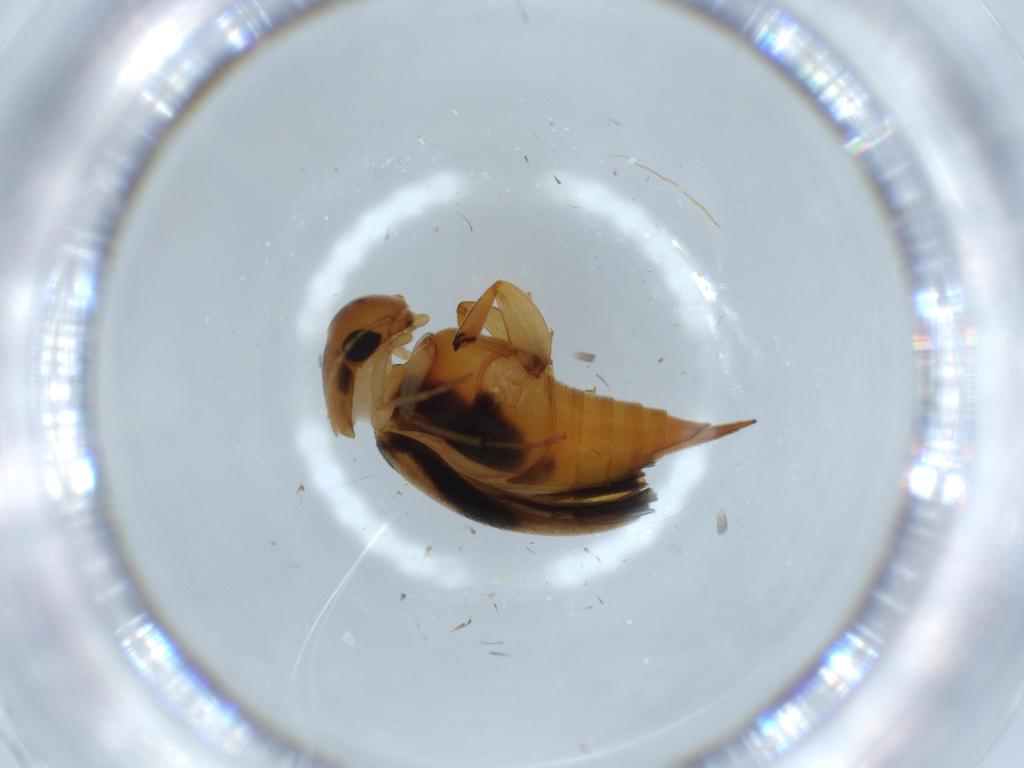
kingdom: Animalia
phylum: Arthropoda
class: Insecta
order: Coleoptera
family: Mordellidae
